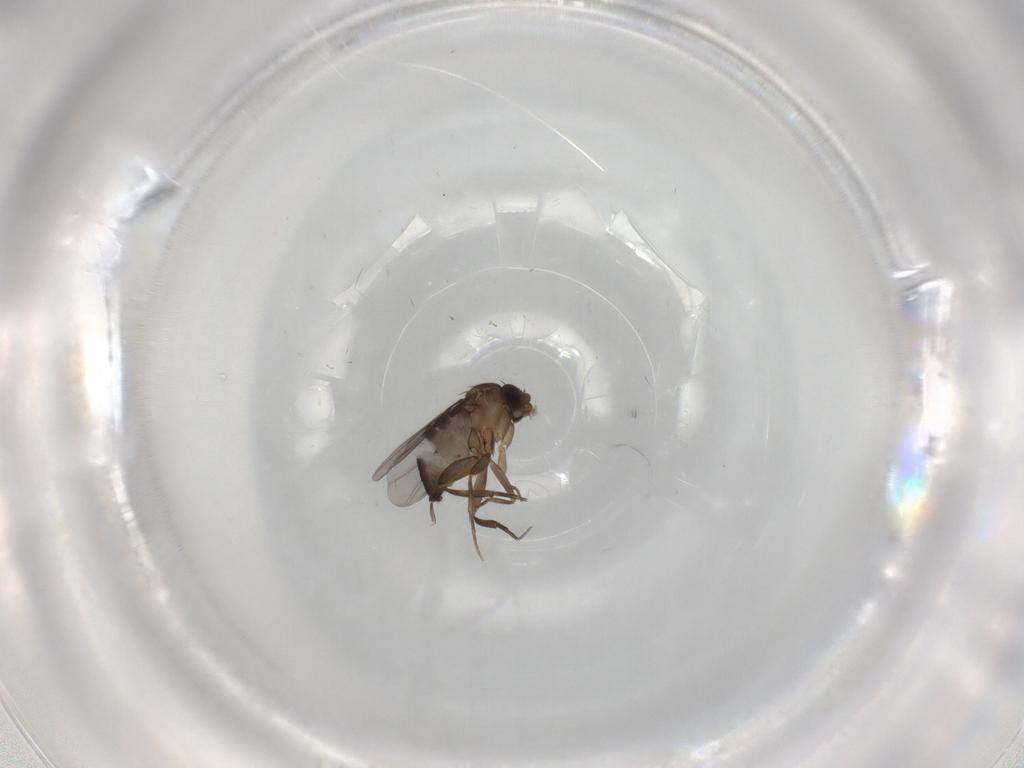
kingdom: Animalia
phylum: Arthropoda
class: Insecta
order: Diptera
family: Phoridae
